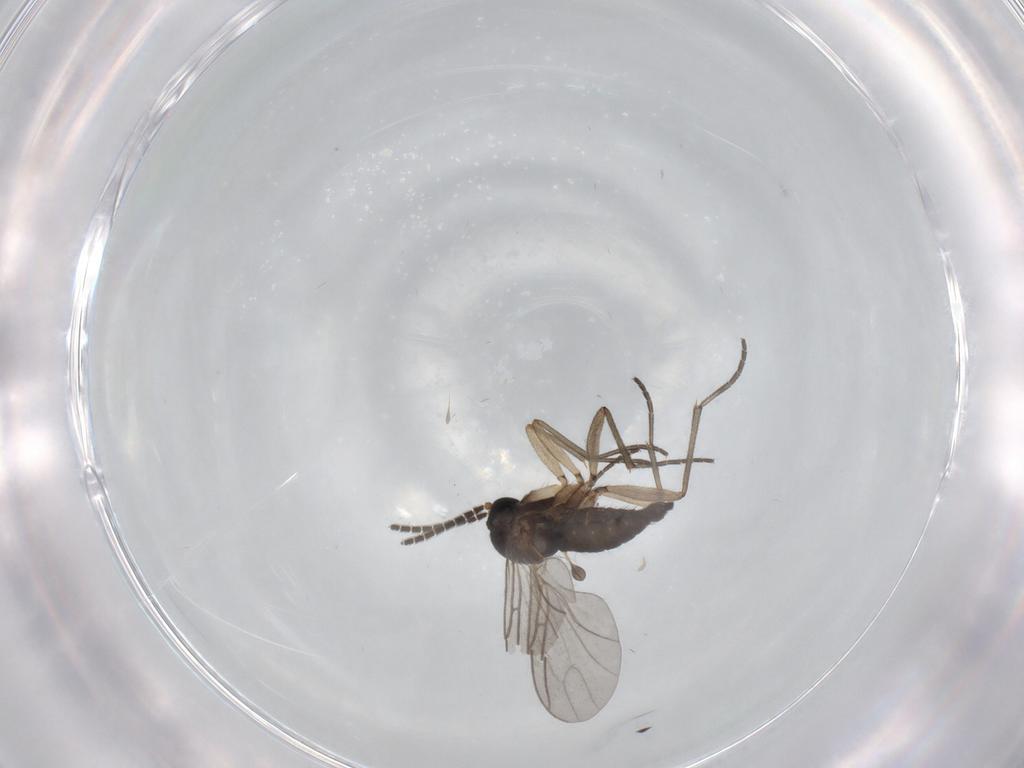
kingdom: Animalia
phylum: Arthropoda
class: Insecta
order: Diptera
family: Sciaridae
